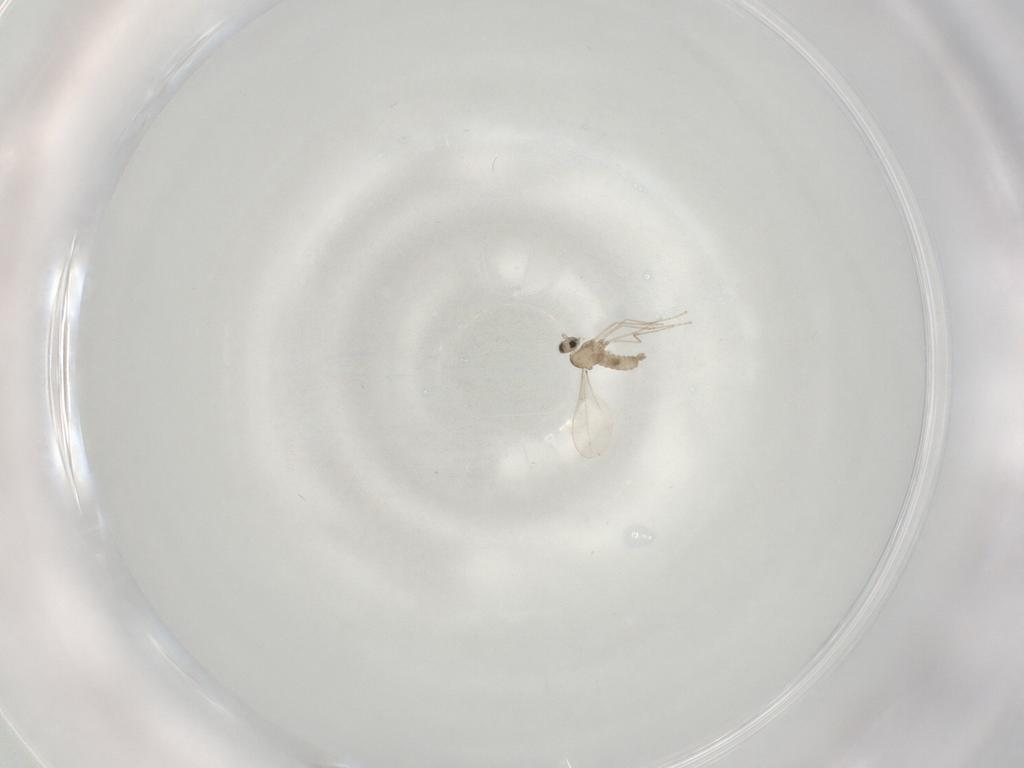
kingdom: Animalia
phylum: Arthropoda
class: Insecta
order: Diptera
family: Cecidomyiidae
